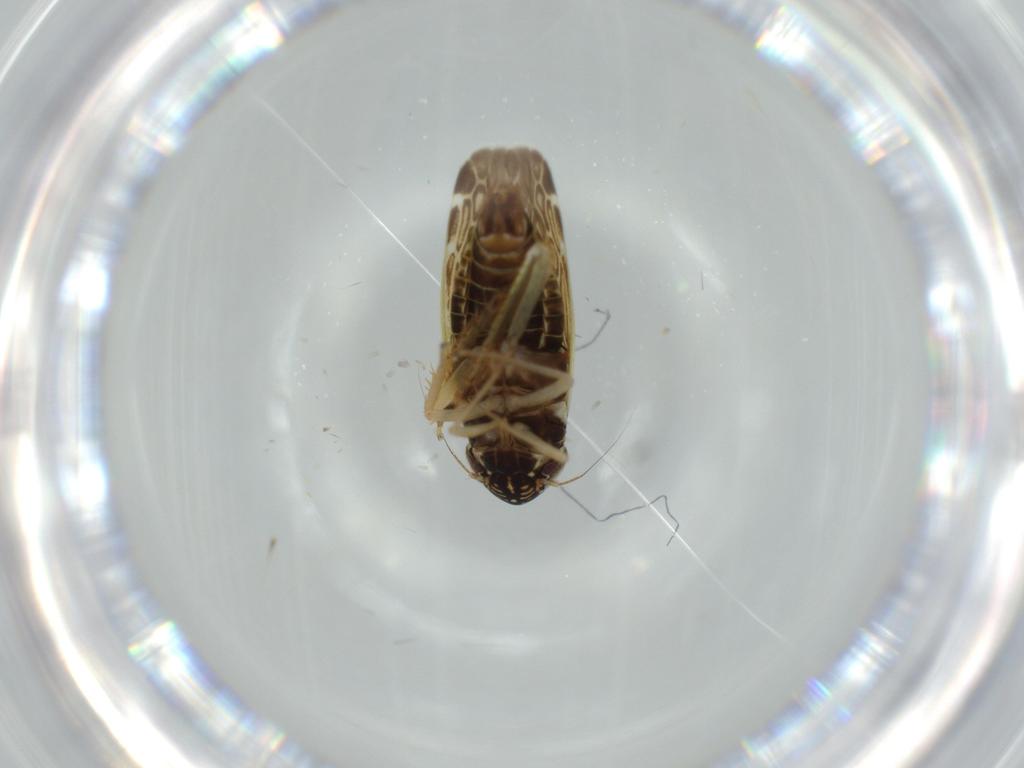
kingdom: Animalia
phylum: Arthropoda
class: Insecta
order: Hemiptera
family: Cicadellidae
